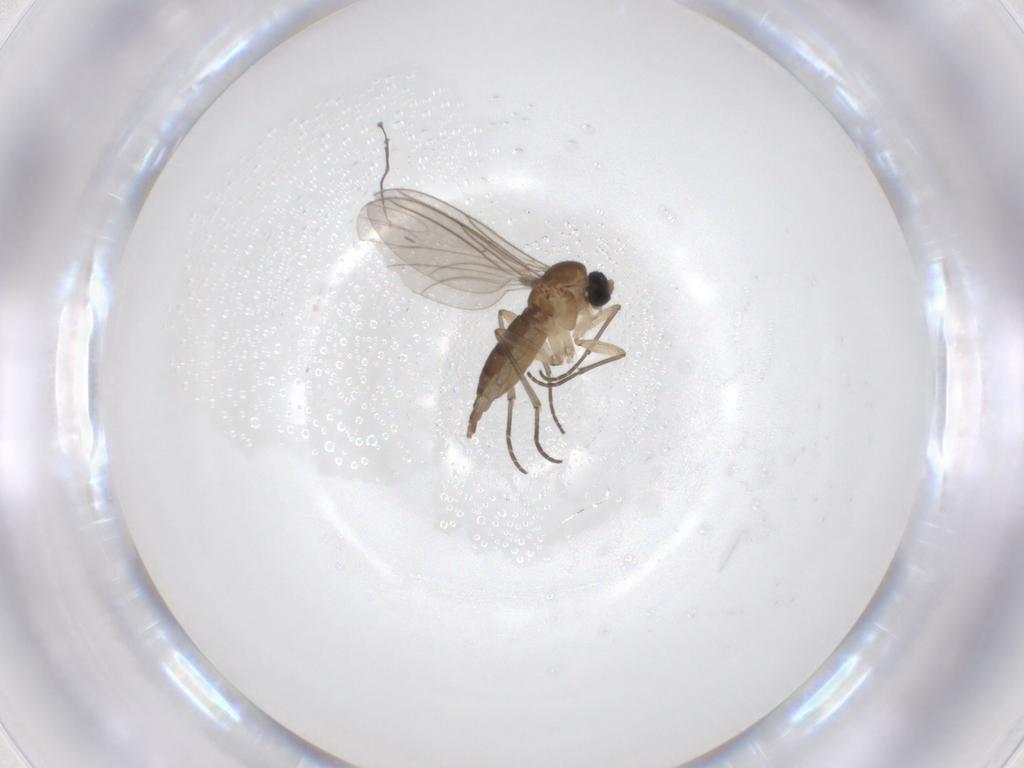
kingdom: Animalia
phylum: Arthropoda
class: Insecta
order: Diptera
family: Sciaridae
